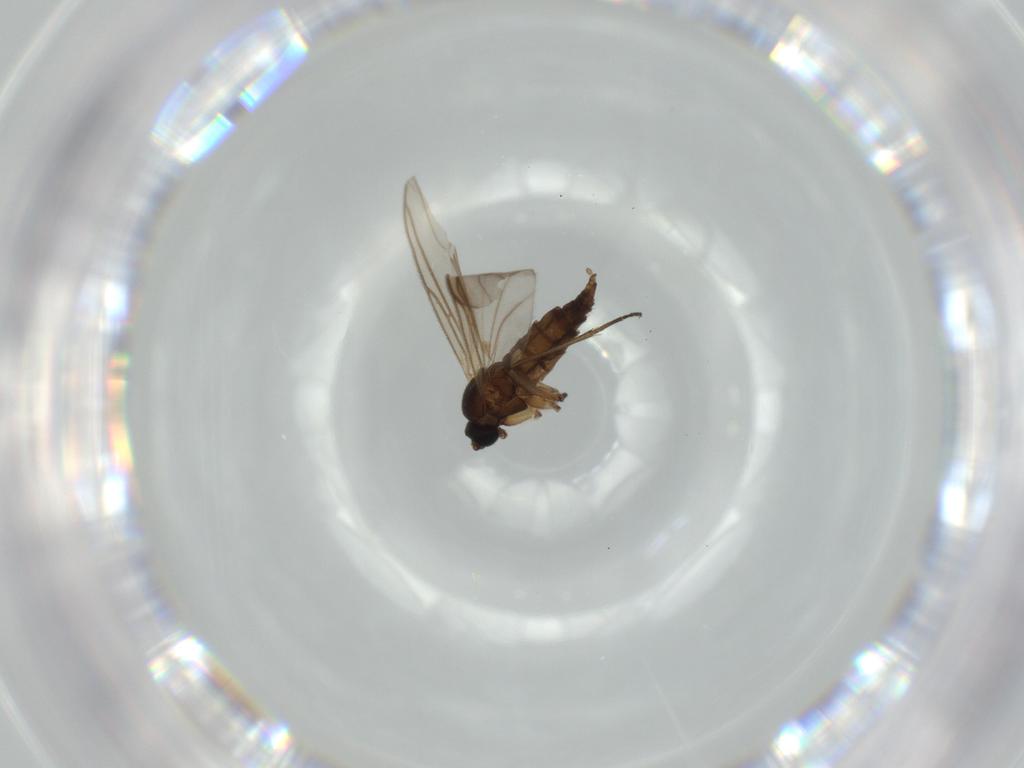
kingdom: Animalia
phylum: Arthropoda
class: Insecta
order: Diptera
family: Sciaridae
